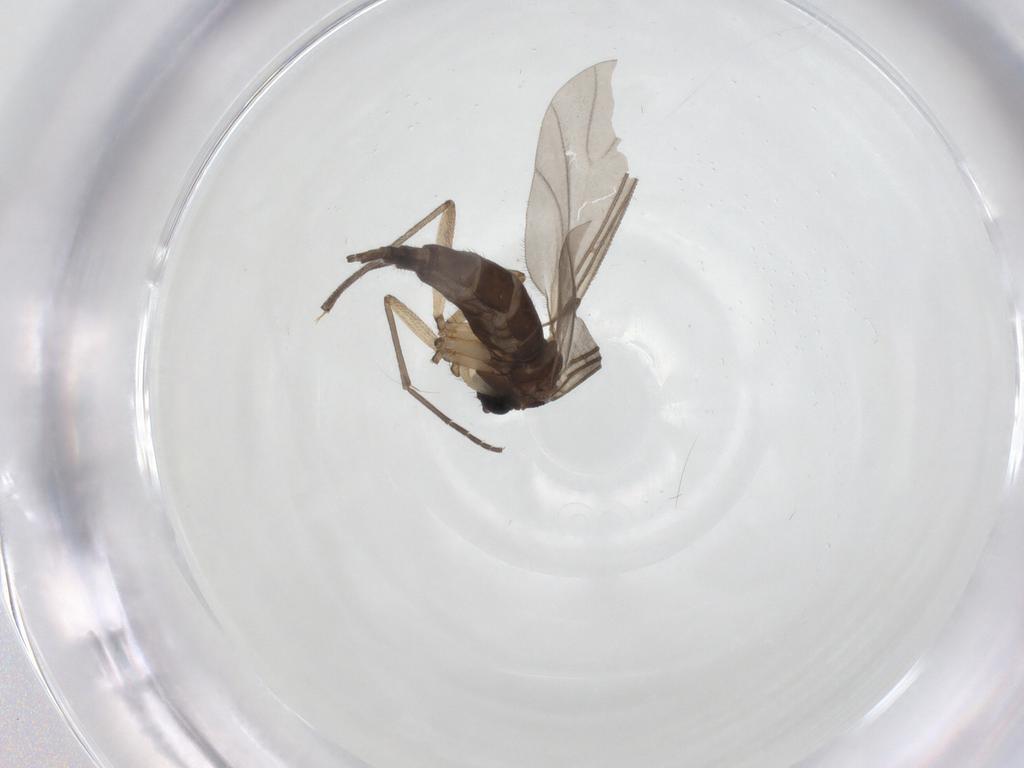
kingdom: Animalia
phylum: Arthropoda
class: Insecta
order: Diptera
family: Sciaridae
